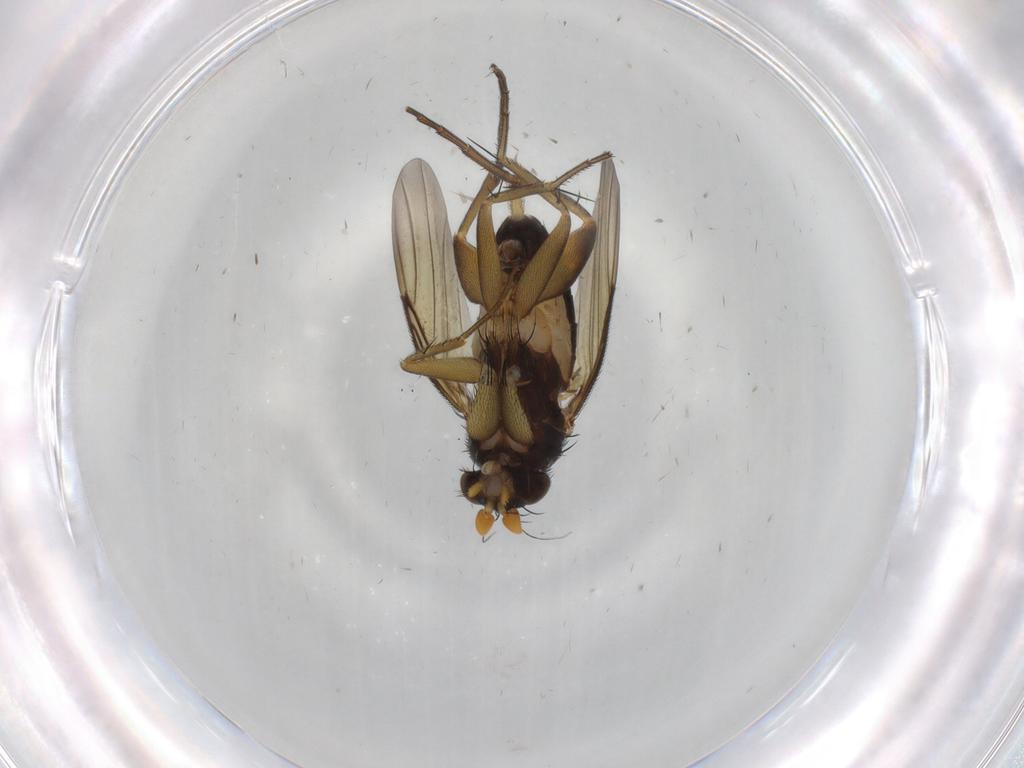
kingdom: Animalia
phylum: Arthropoda
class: Insecta
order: Diptera
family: Phoridae
